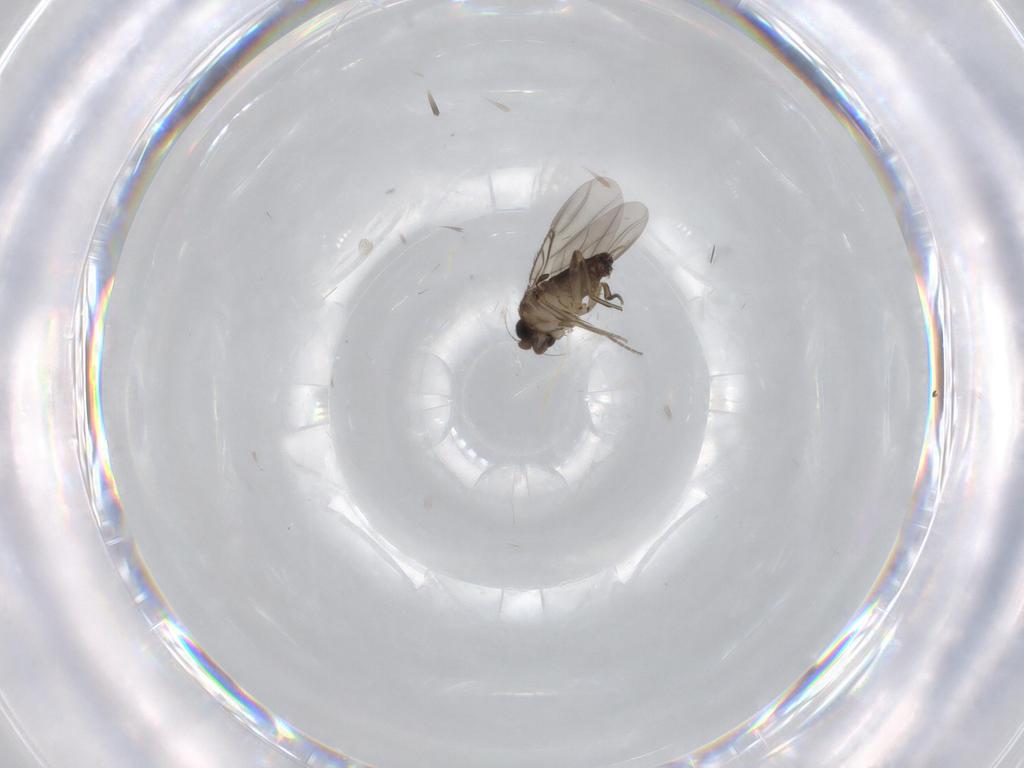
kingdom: Animalia
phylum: Arthropoda
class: Insecta
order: Diptera
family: Phoridae
